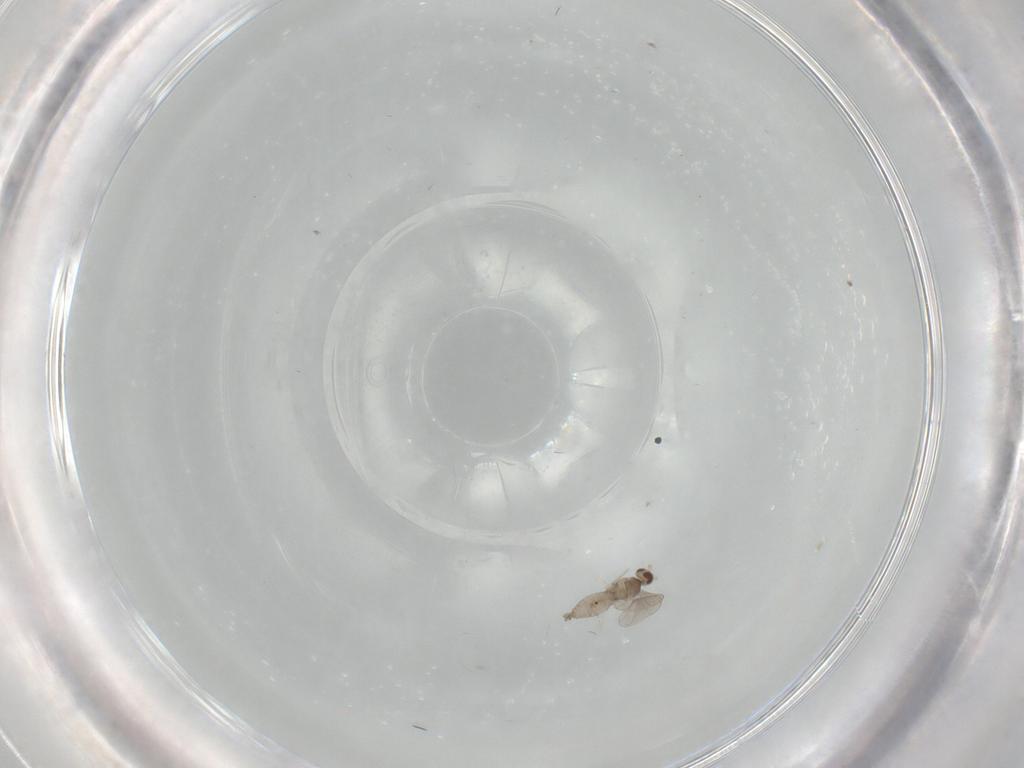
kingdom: Animalia
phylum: Arthropoda
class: Insecta
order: Diptera
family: Cecidomyiidae
